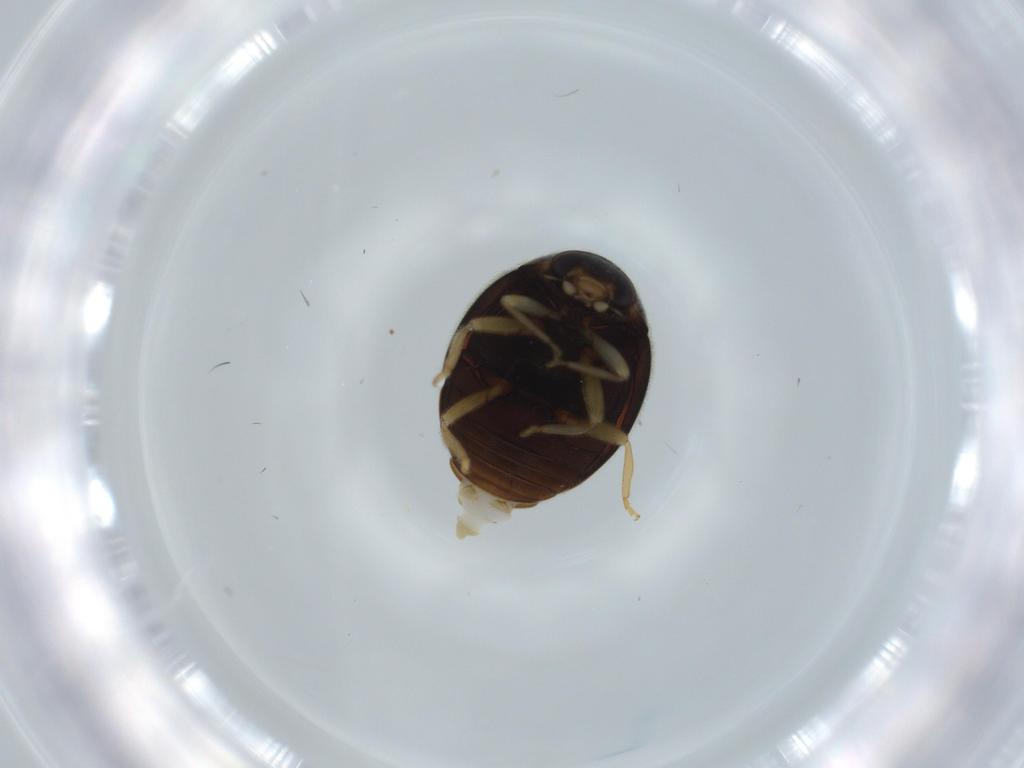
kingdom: Animalia
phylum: Arthropoda
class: Insecta
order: Coleoptera
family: Coccinellidae
